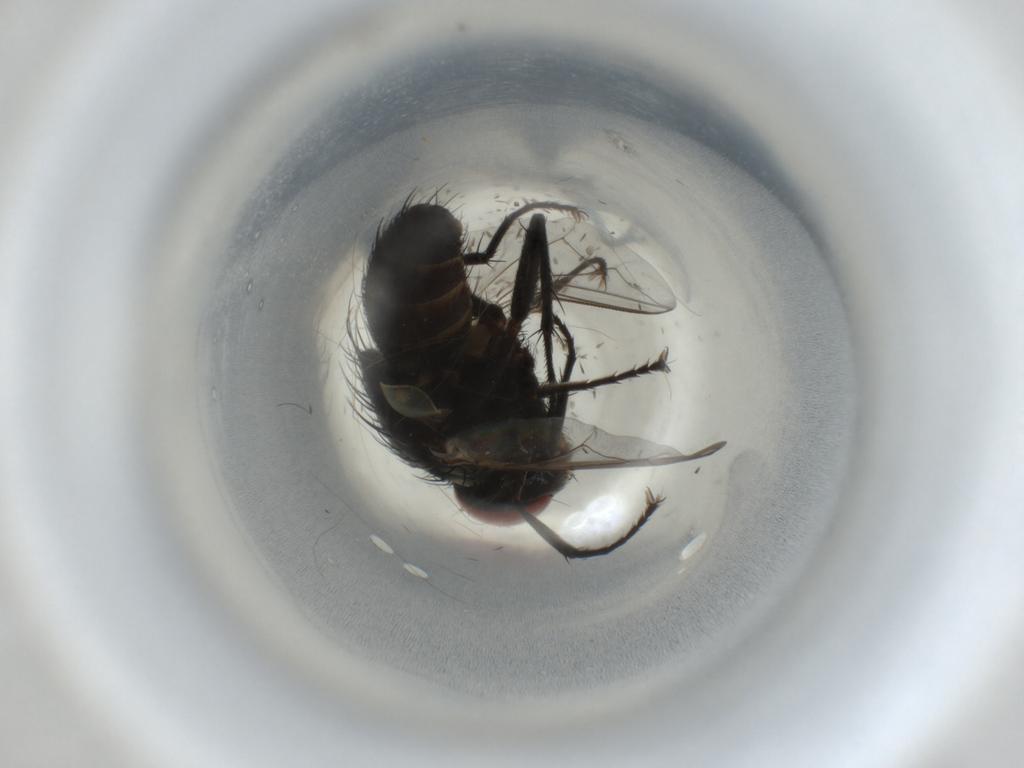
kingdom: Animalia
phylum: Arthropoda
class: Insecta
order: Diptera
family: Sarcophagidae
